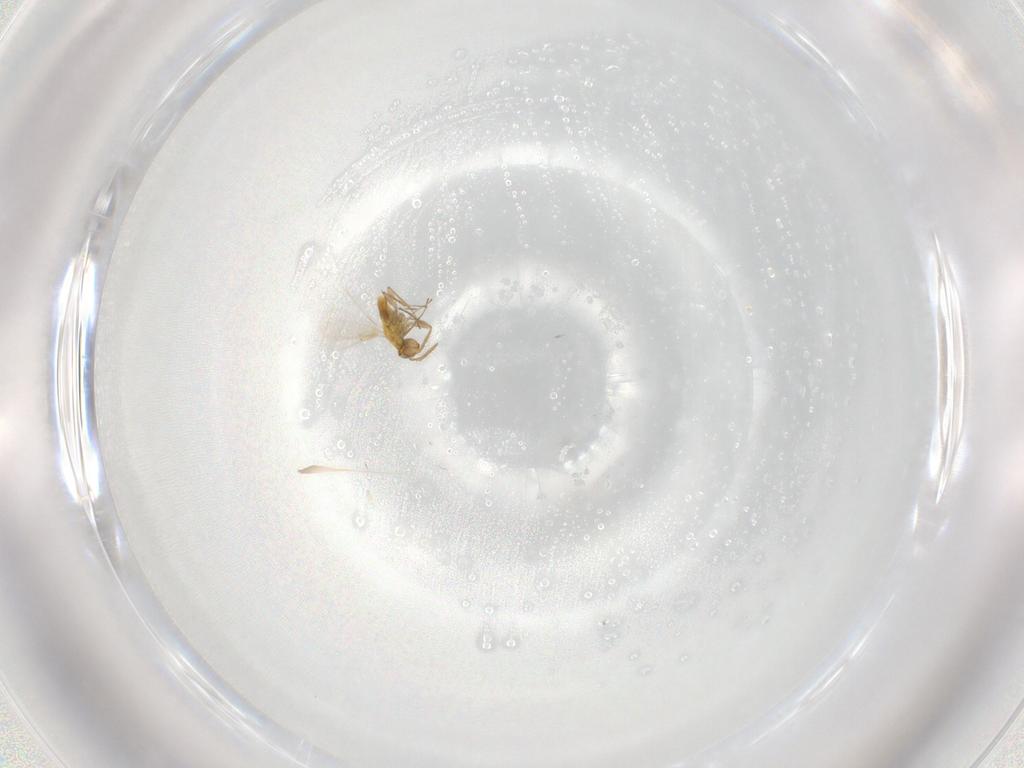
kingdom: Animalia
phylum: Arthropoda
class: Insecta
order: Hymenoptera
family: Aphelinidae
